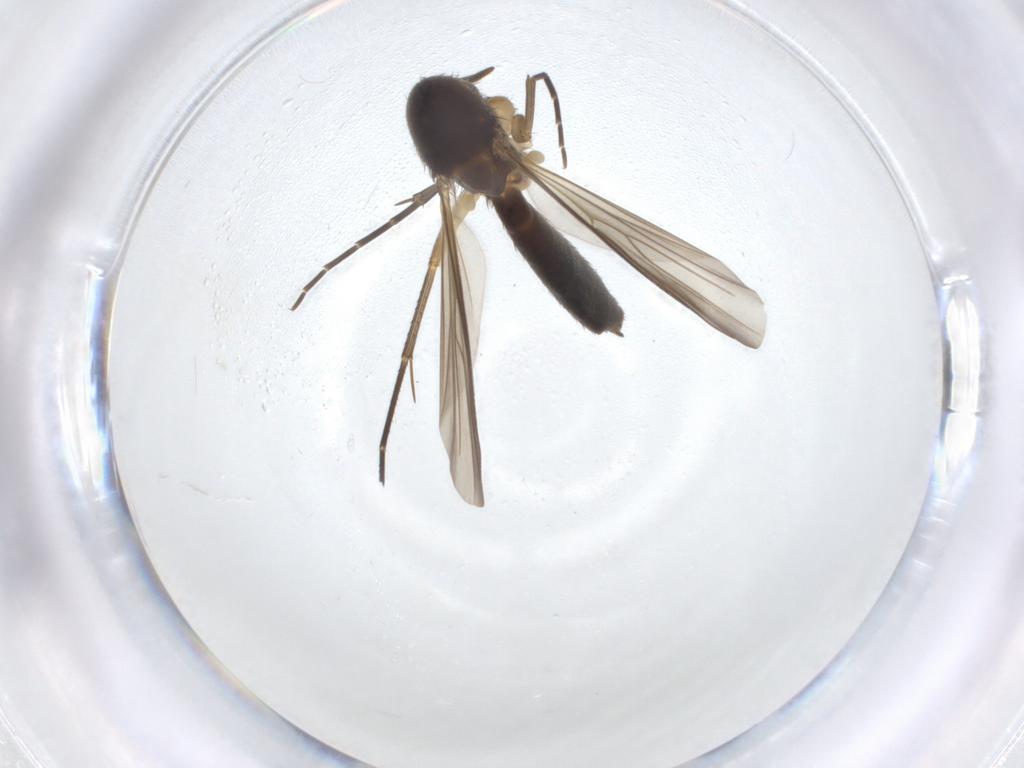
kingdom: Animalia
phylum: Arthropoda
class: Insecta
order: Diptera
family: Mycetophilidae
